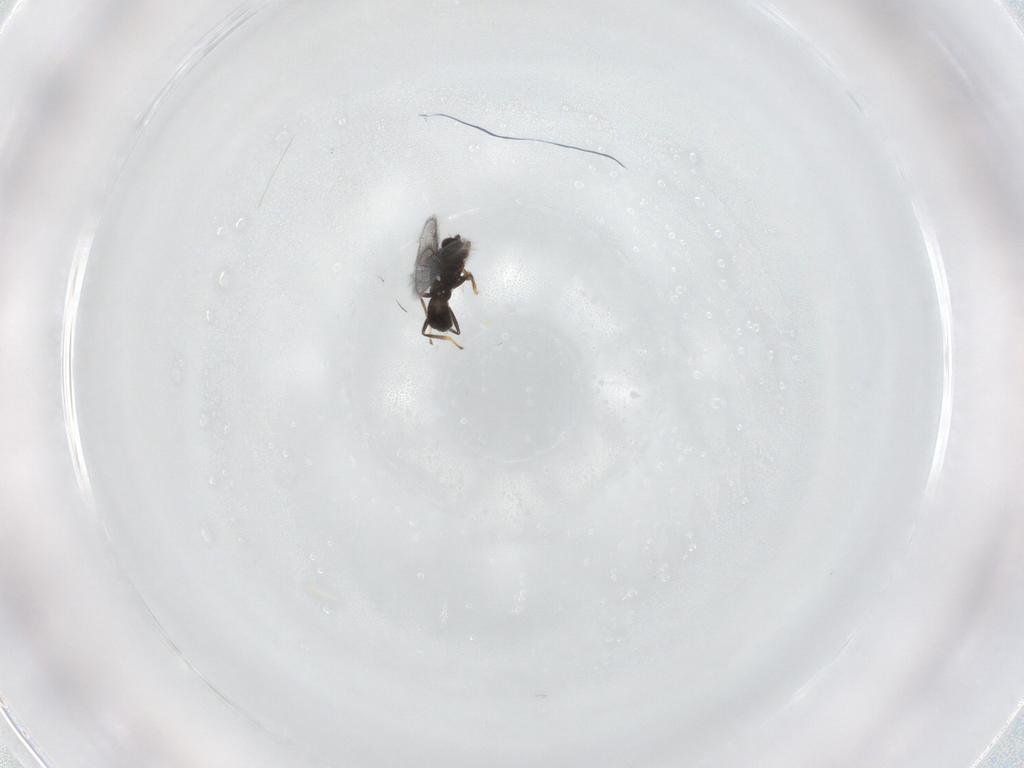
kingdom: Animalia
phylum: Arthropoda
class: Insecta
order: Hymenoptera
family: Eulophidae
